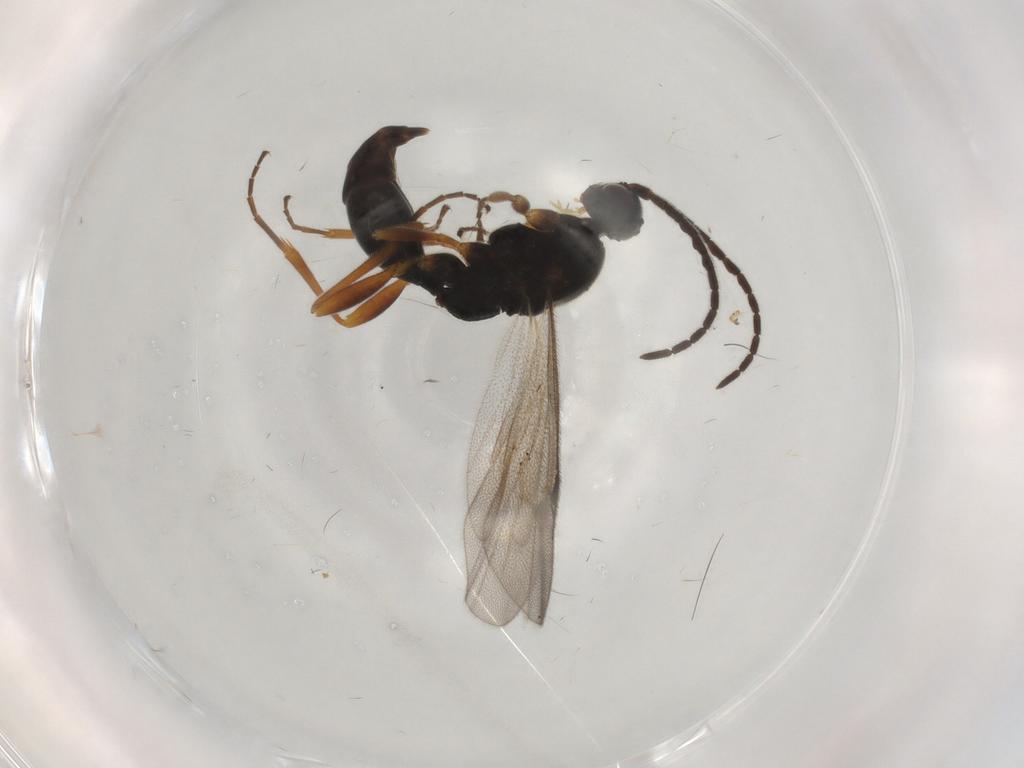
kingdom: Animalia
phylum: Arthropoda
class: Insecta
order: Hymenoptera
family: Proctotrupidae
